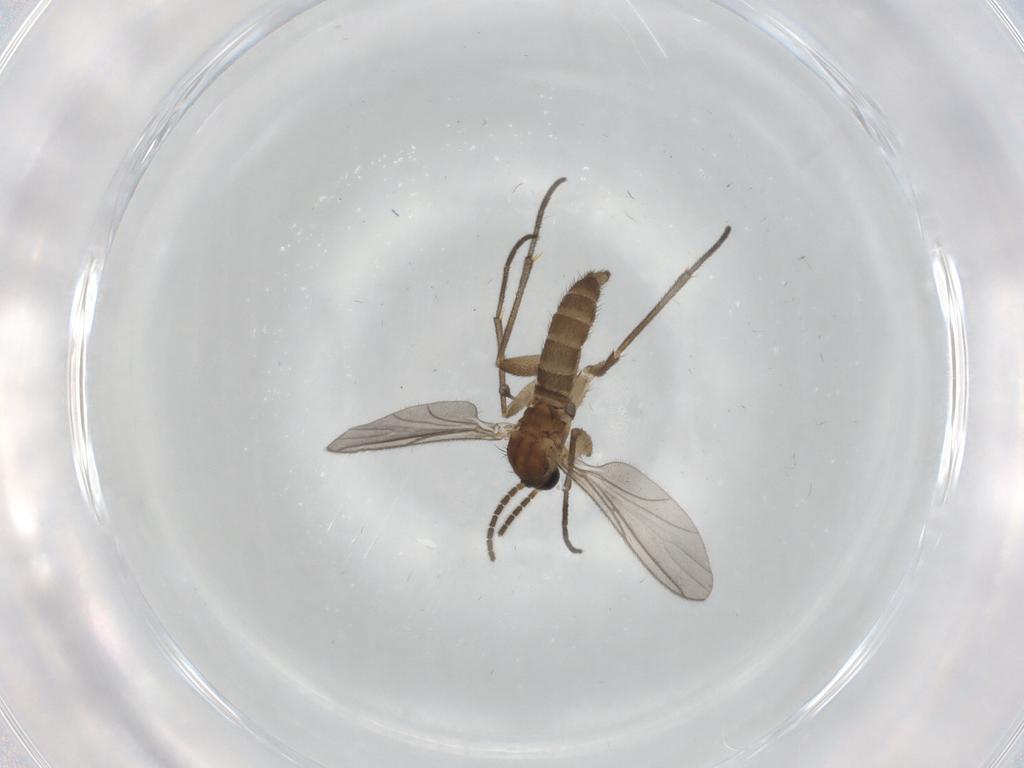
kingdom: Animalia
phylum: Arthropoda
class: Insecta
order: Diptera
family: Sciaridae
